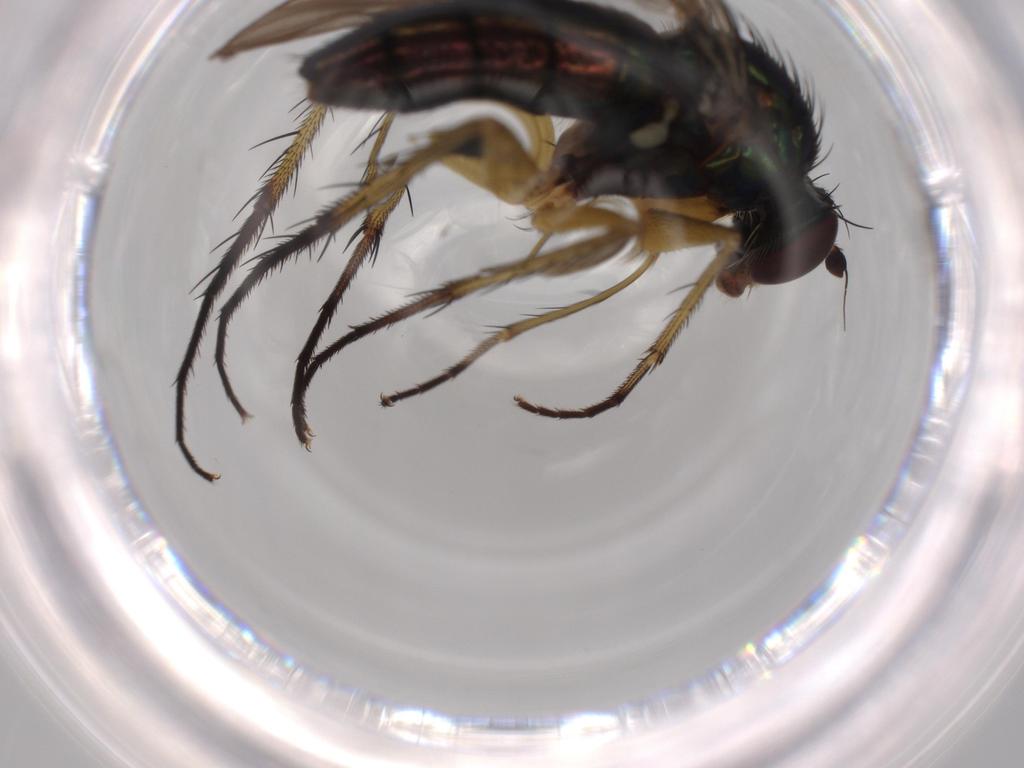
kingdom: Animalia
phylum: Arthropoda
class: Insecta
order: Diptera
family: Dolichopodidae
